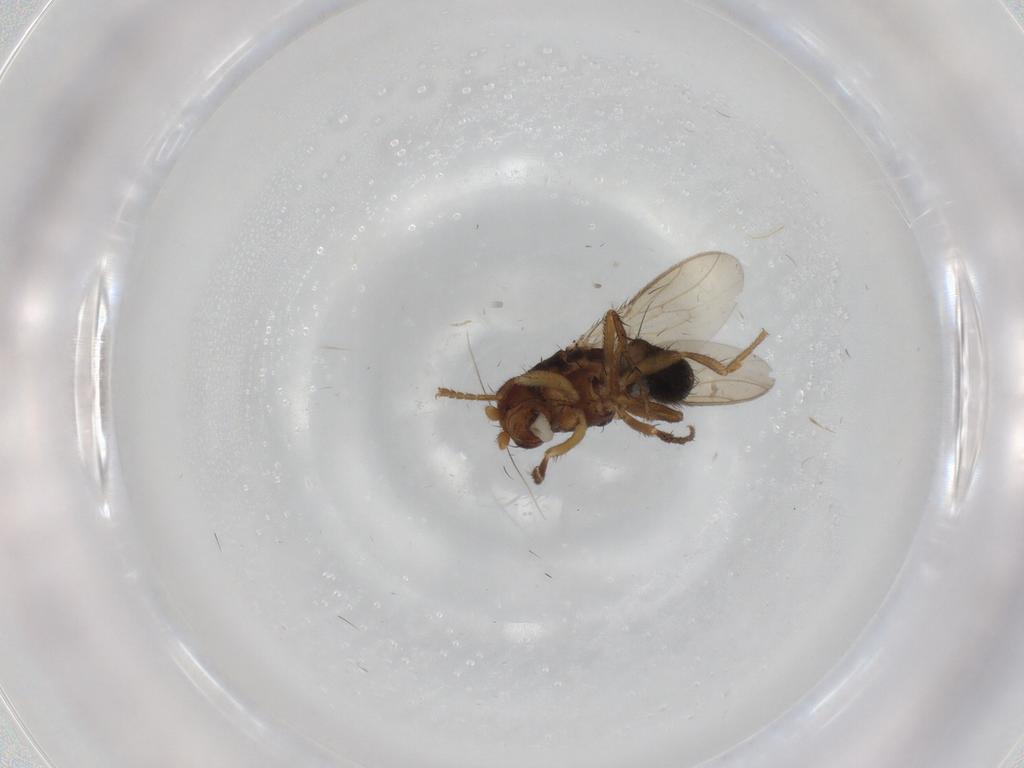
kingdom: Animalia
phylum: Arthropoda
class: Insecta
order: Diptera
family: Sphaeroceridae
